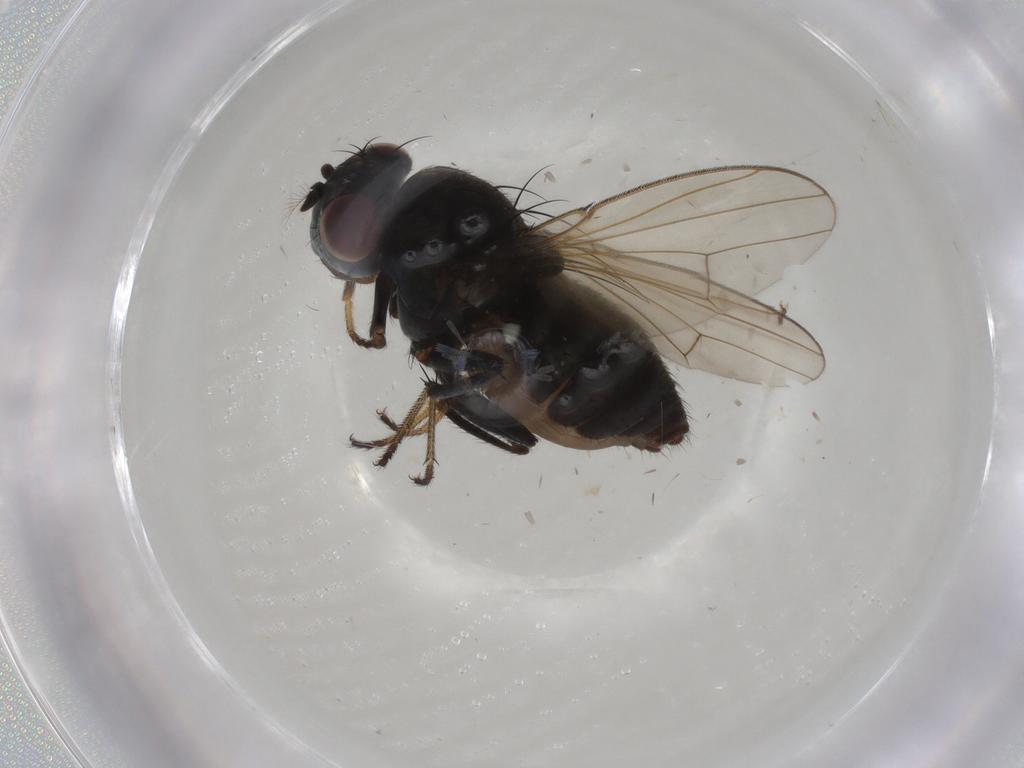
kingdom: Animalia
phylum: Arthropoda
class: Insecta
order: Diptera
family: Ephydridae
